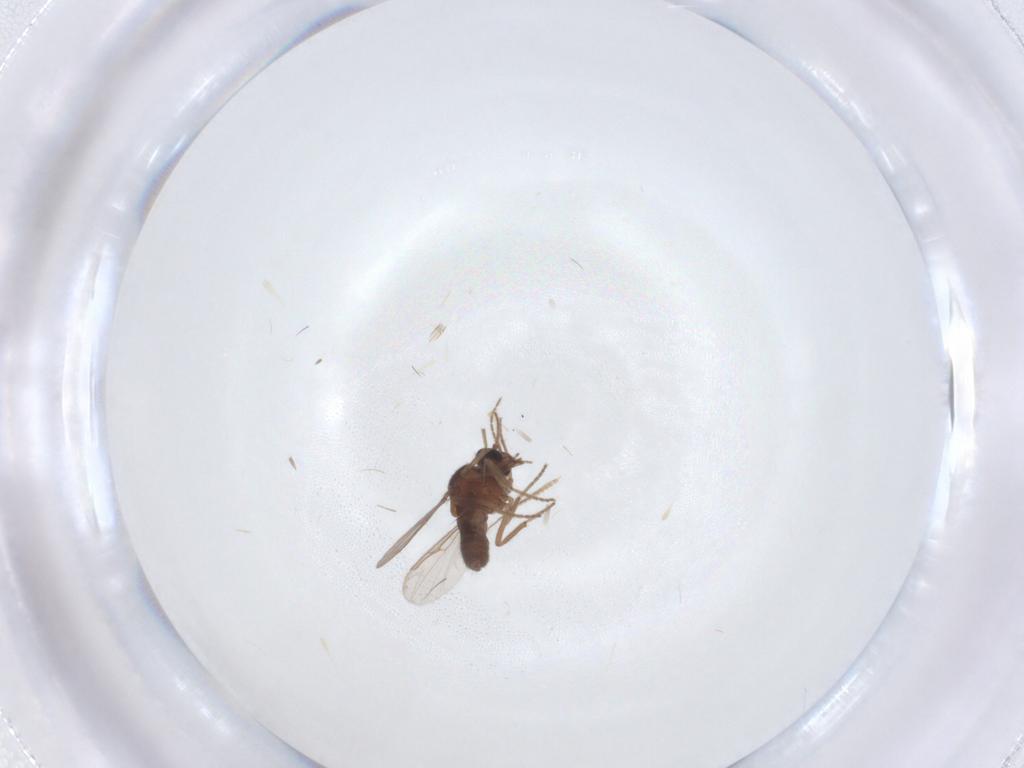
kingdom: Animalia
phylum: Arthropoda
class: Insecta
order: Diptera
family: Ceratopogonidae
